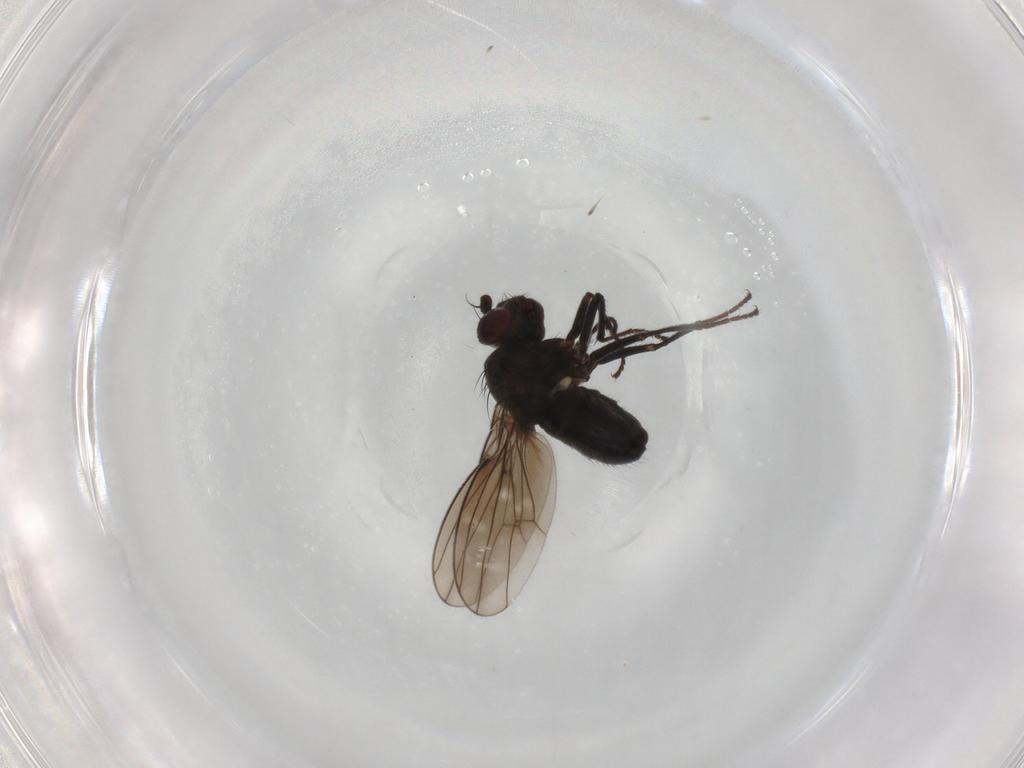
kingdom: Animalia
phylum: Arthropoda
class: Insecta
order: Diptera
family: Ephydridae
